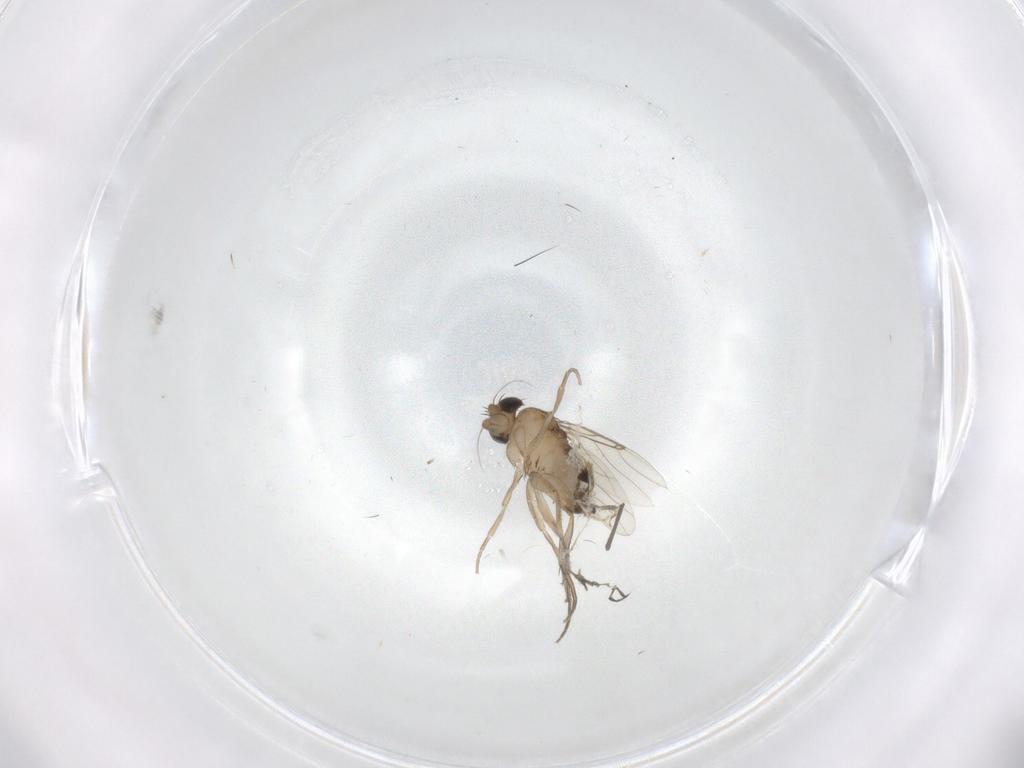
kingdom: Animalia
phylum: Arthropoda
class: Insecta
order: Diptera
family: Phoridae
